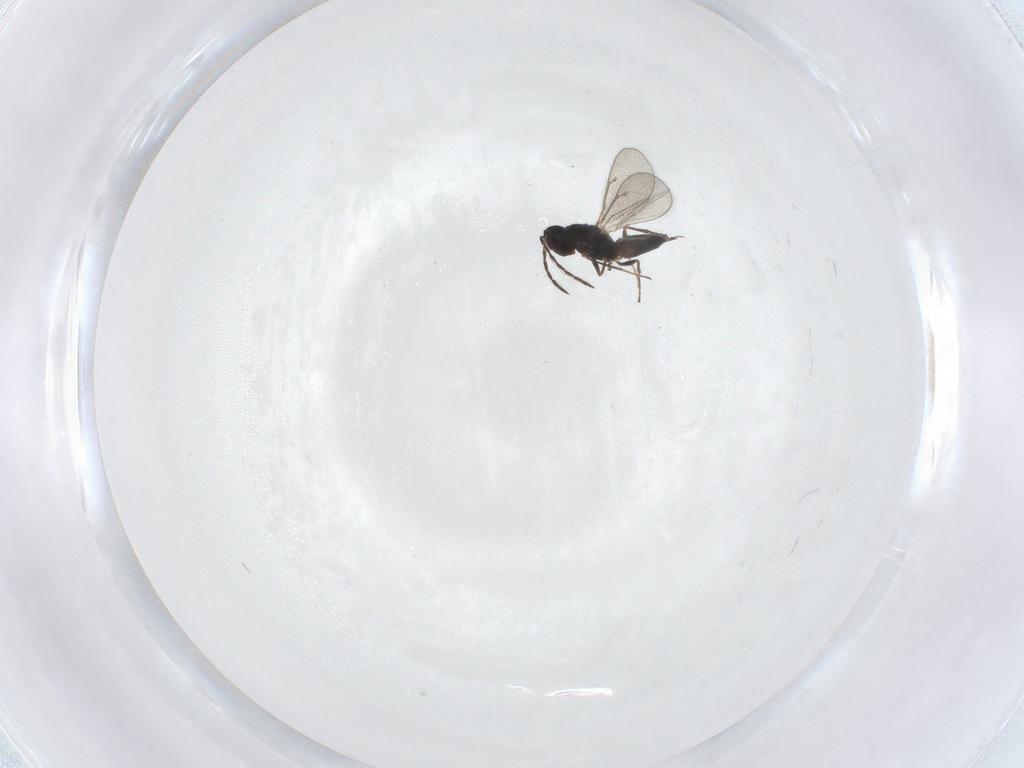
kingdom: Animalia
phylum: Arthropoda
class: Insecta
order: Hymenoptera
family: Eulophidae
